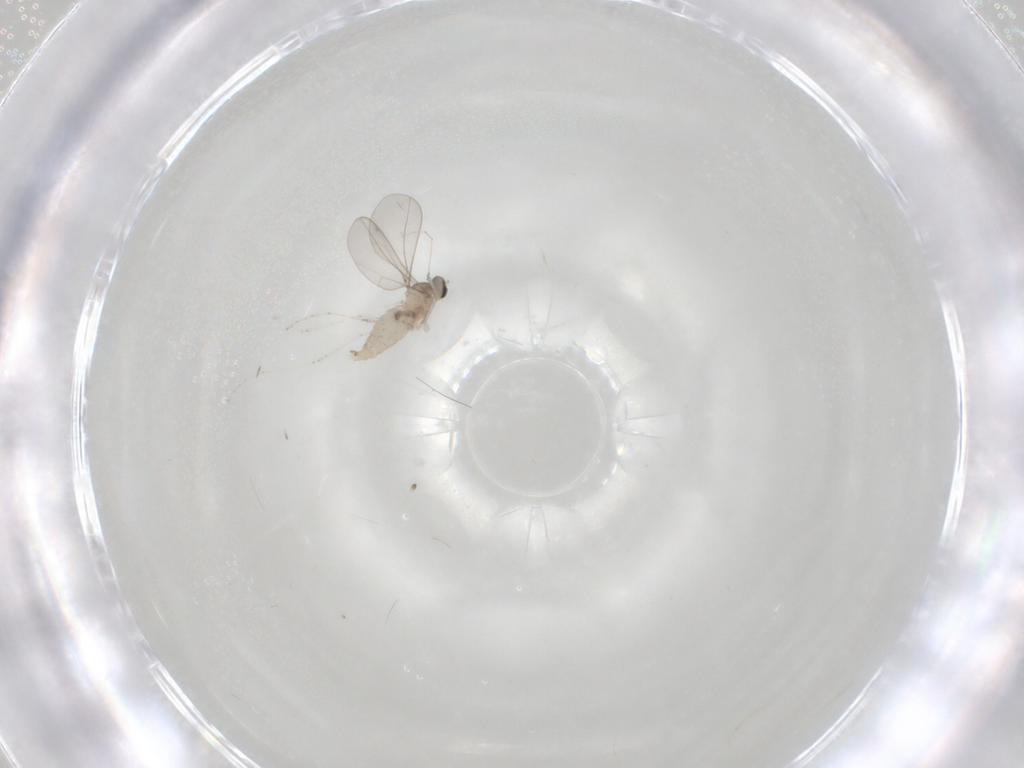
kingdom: Animalia
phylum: Arthropoda
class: Insecta
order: Diptera
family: Cecidomyiidae
